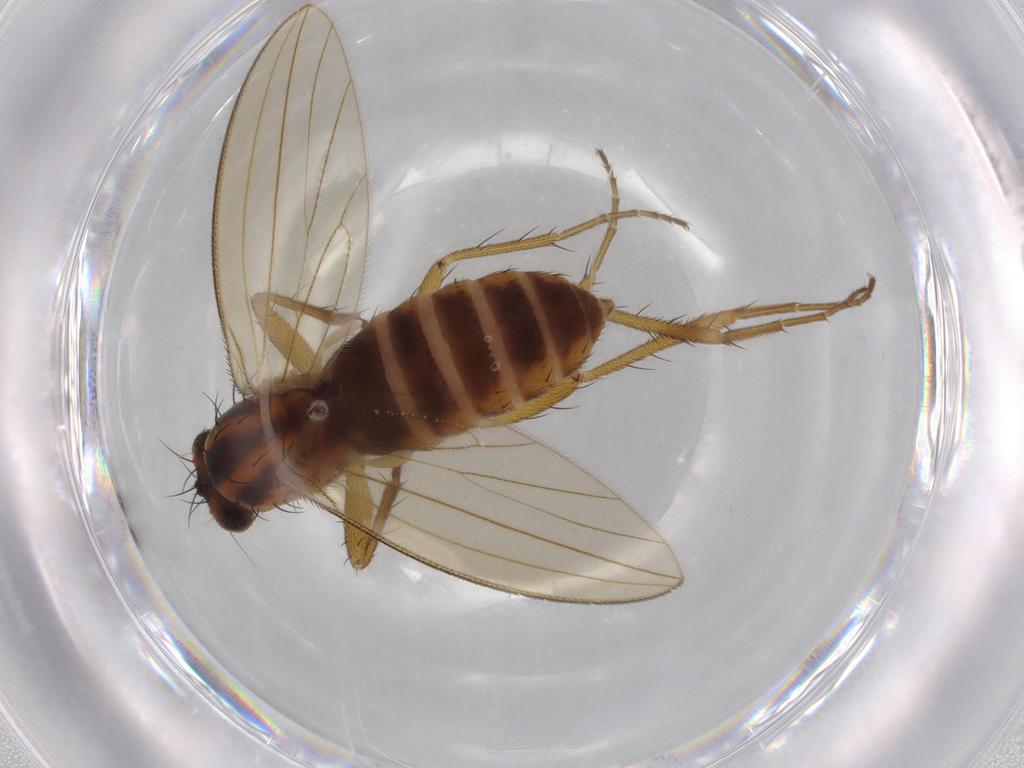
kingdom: Animalia
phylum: Arthropoda
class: Insecta
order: Diptera
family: Lonchopteridae
